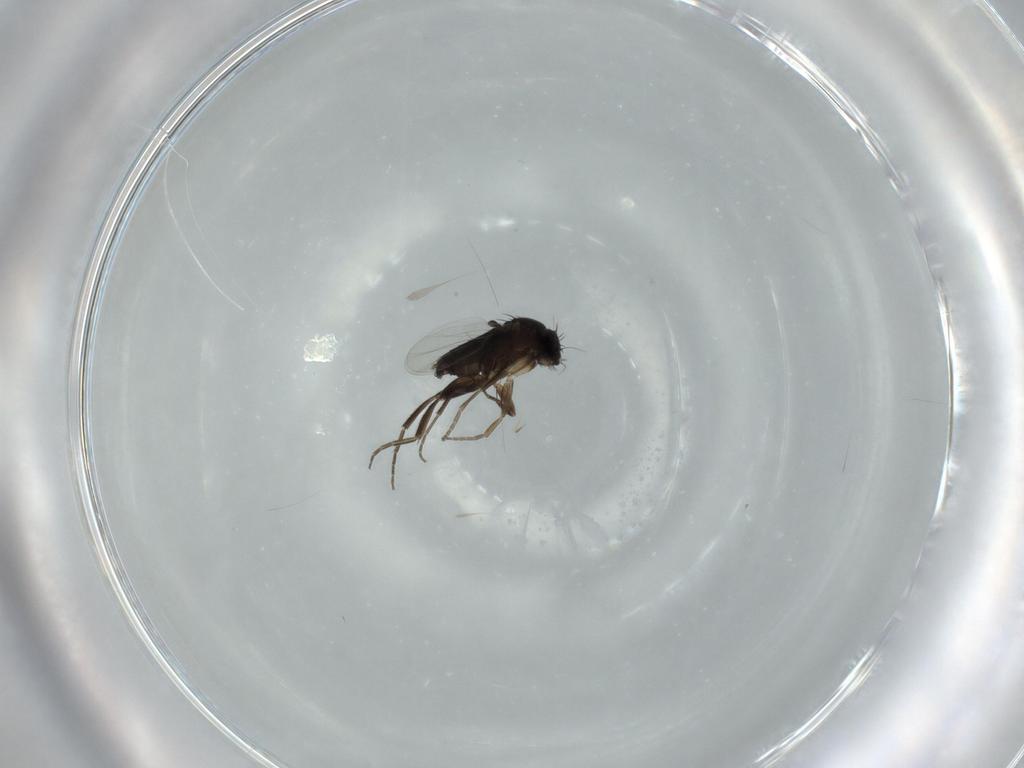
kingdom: Animalia
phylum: Arthropoda
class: Insecta
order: Diptera
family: Phoridae
